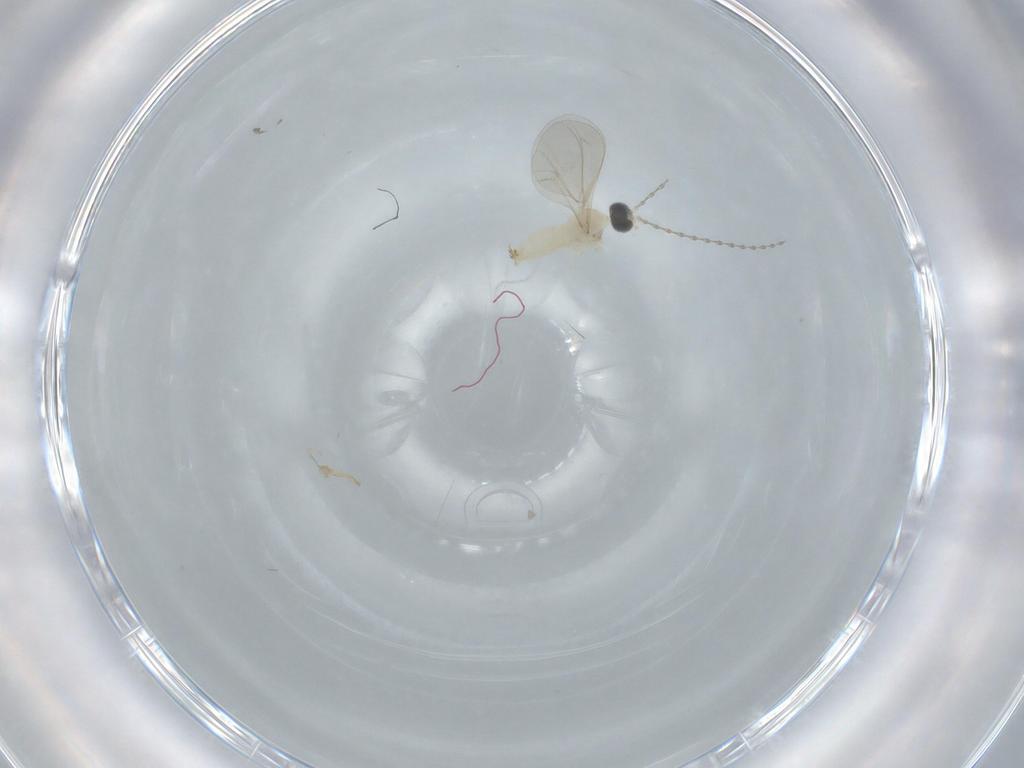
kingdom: Animalia
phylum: Arthropoda
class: Insecta
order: Diptera
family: Cecidomyiidae
